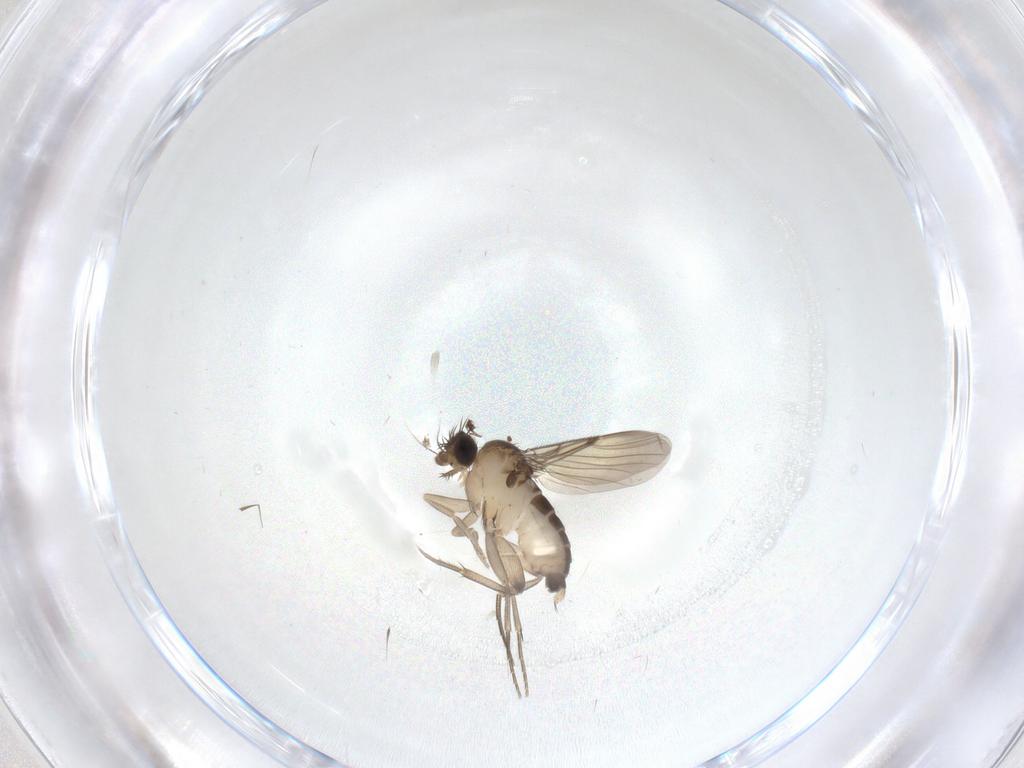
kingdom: Animalia
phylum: Arthropoda
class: Insecta
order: Diptera
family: Phoridae
